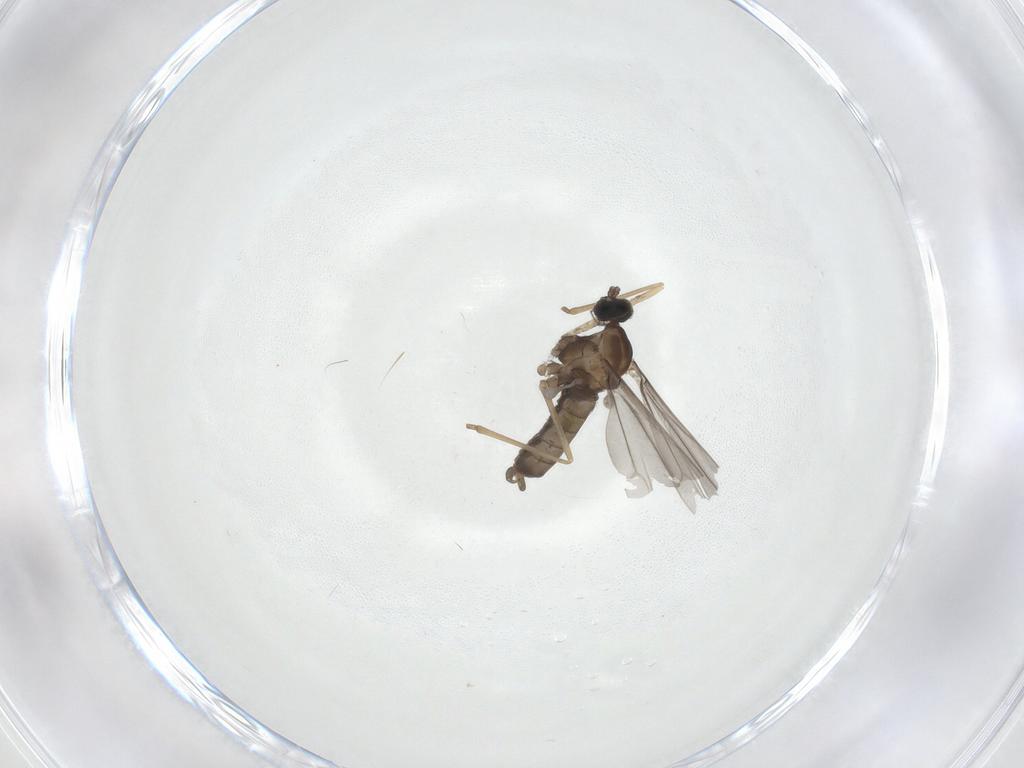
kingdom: Animalia
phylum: Arthropoda
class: Insecta
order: Diptera
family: Cecidomyiidae
